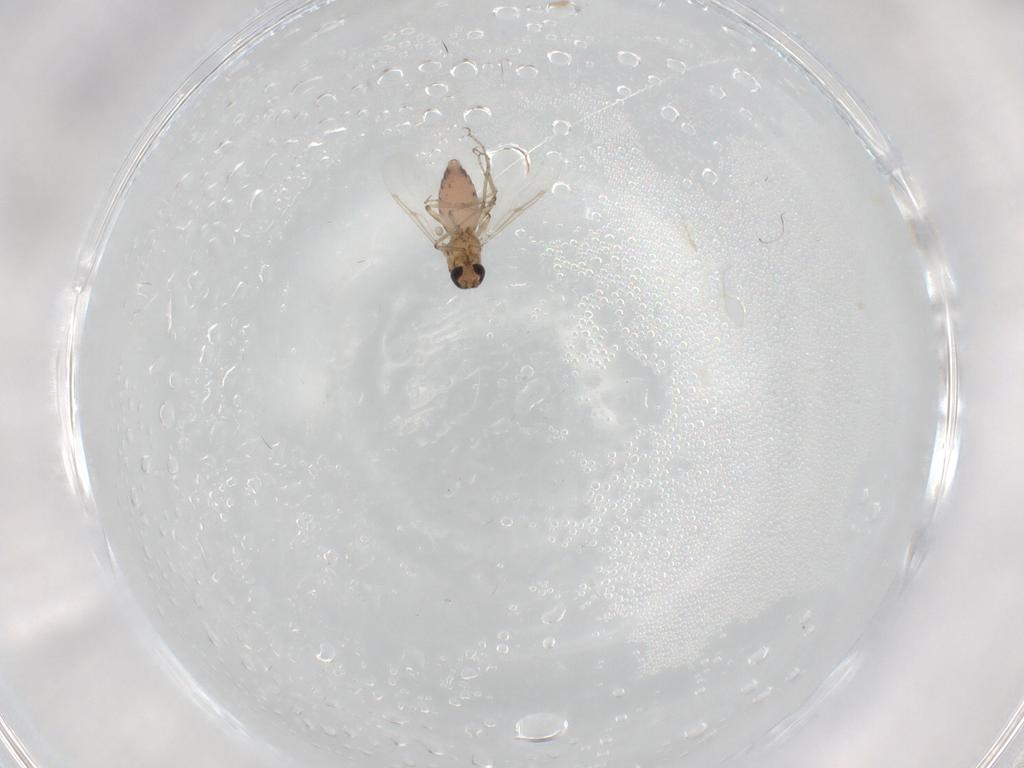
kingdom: Animalia
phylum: Arthropoda
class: Insecta
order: Diptera
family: Ceratopogonidae
